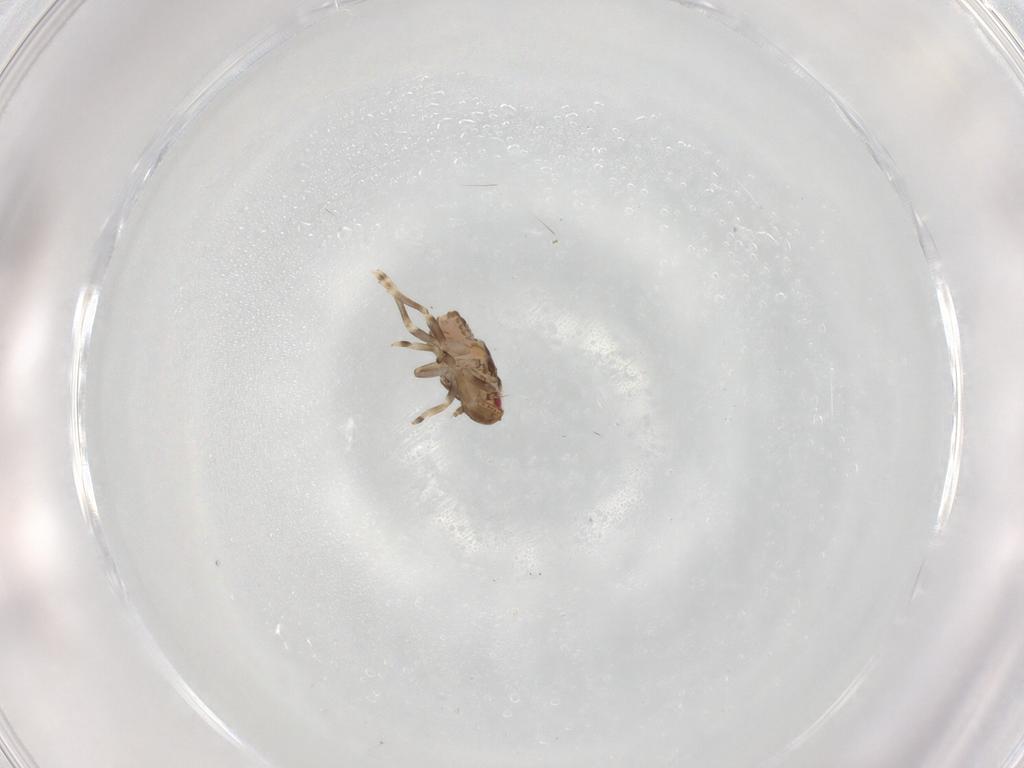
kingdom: Animalia
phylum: Arthropoda
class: Insecta
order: Hemiptera
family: Flatidae
